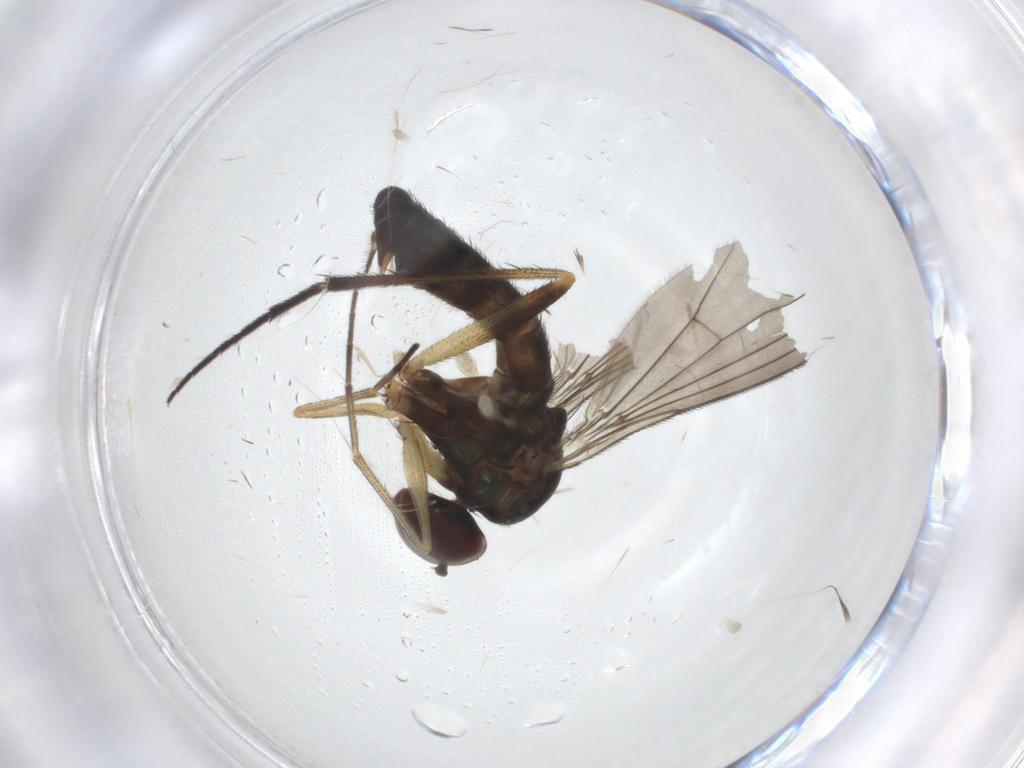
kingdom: Animalia
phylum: Arthropoda
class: Insecta
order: Diptera
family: Dolichopodidae
